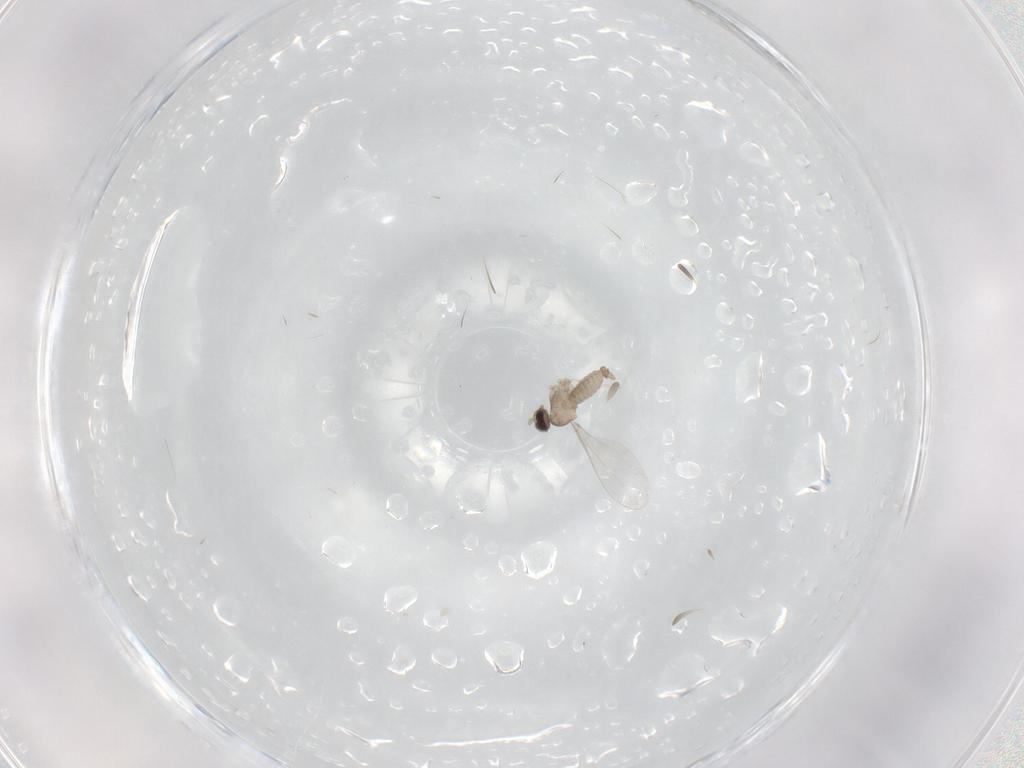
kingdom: Animalia
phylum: Arthropoda
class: Insecta
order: Diptera
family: Cecidomyiidae
